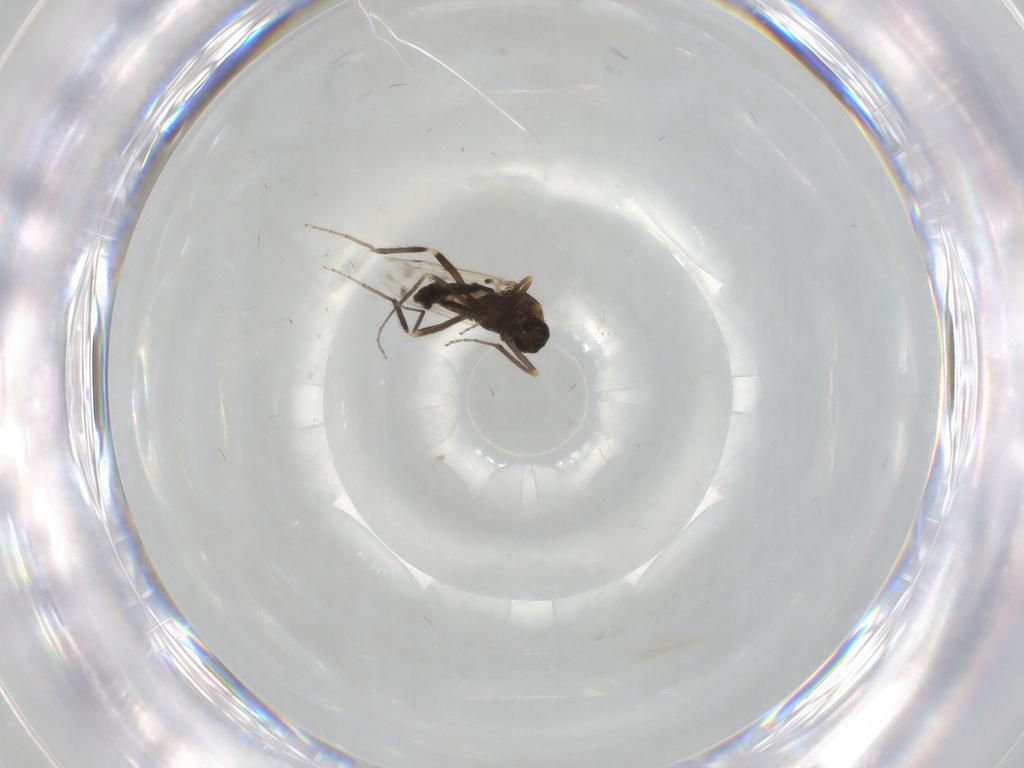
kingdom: Animalia
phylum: Arthropoda
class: Insecta
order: Diptera
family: Ceratopogonidae
